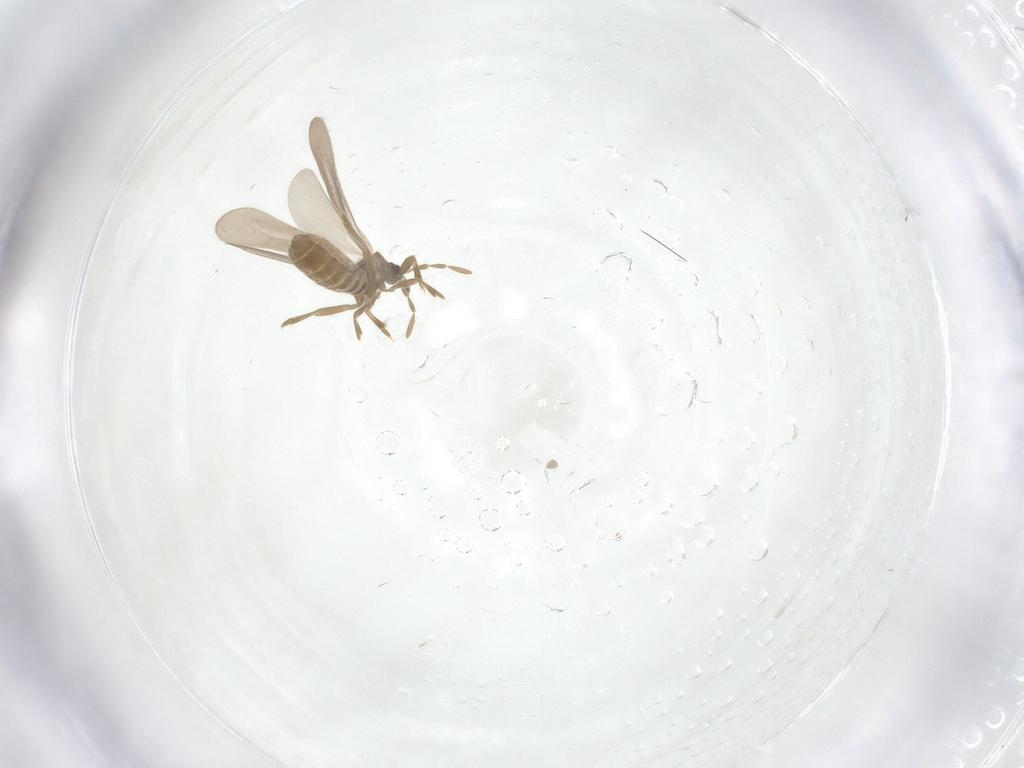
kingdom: Animalia
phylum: Arthropoda
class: Insecta
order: Hemiptera
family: Enicocephalidae
